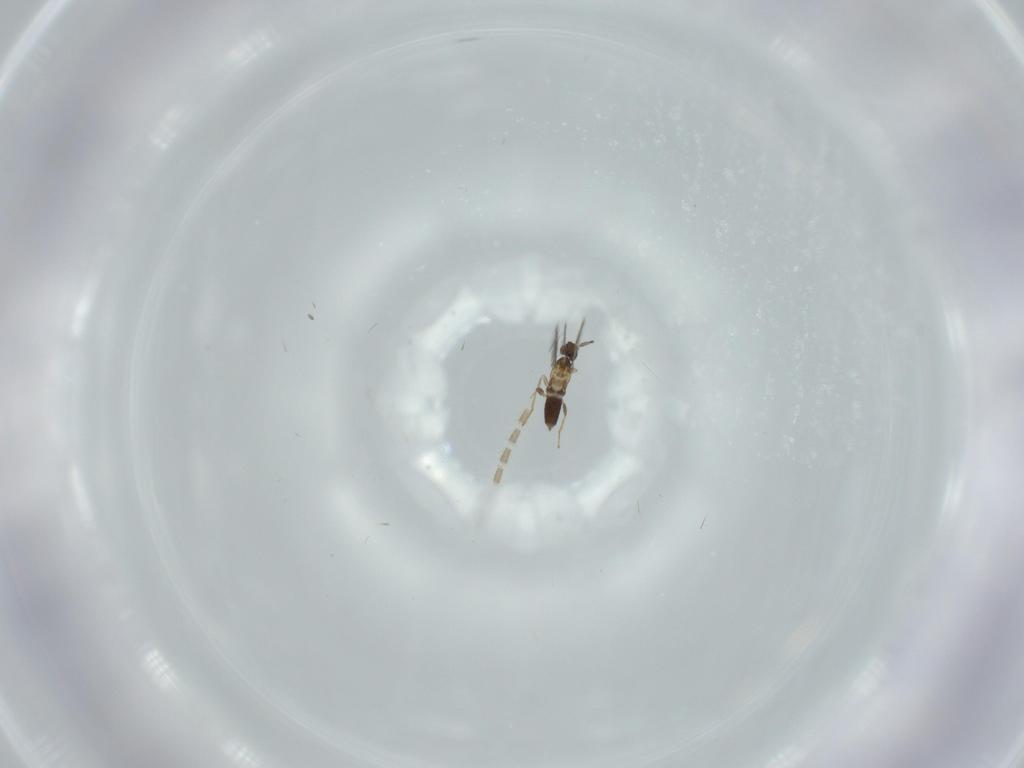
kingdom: Animalia
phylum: Arthropoda
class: Insecta
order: Hymenoptera
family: Mymaridae
